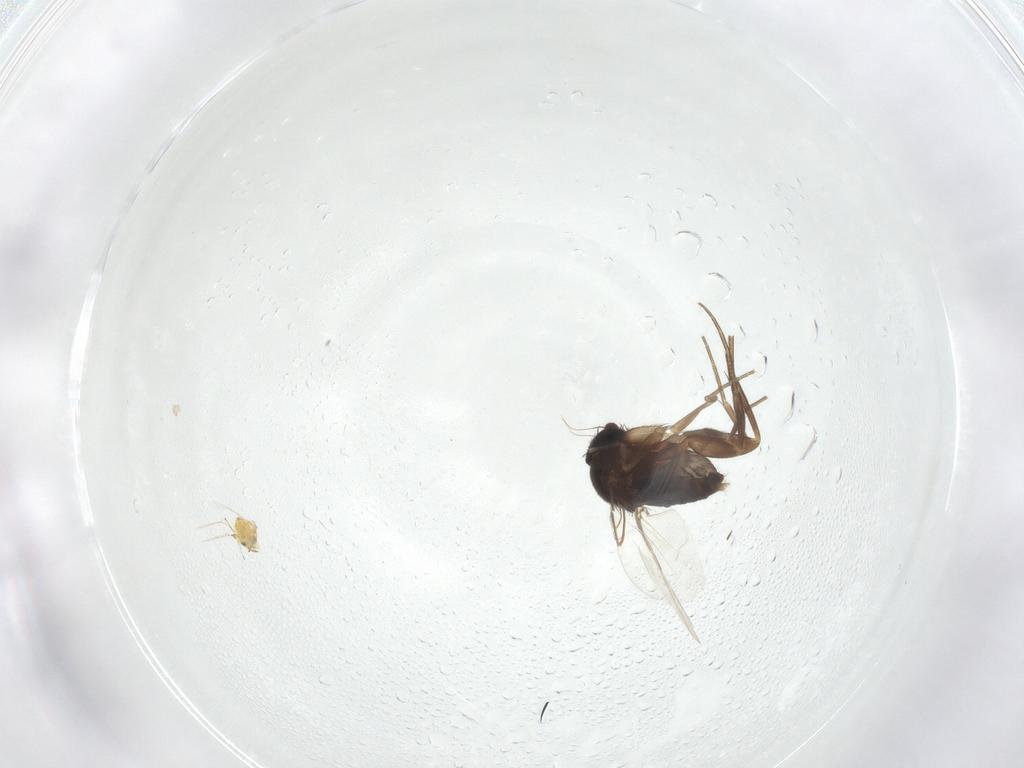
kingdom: Animalia
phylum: Arthropoda
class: Insecta
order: Diptera
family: Phoridae
